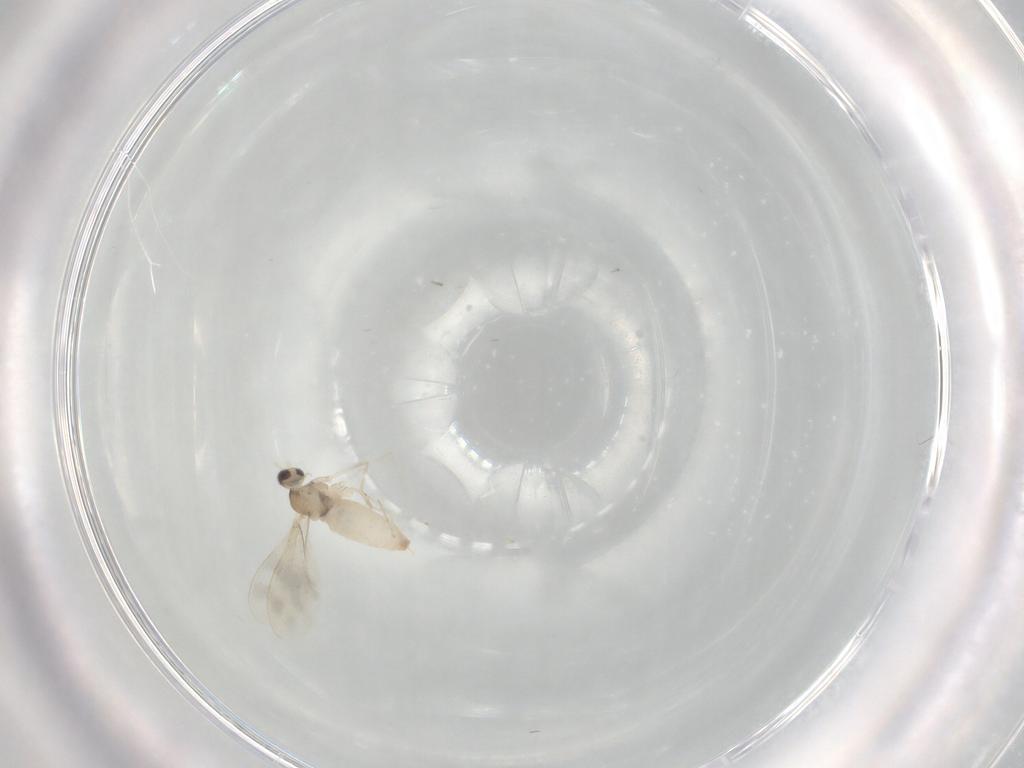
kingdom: Animalia
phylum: Arthropoda
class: Insecta
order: Diptera
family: Cecidomyiidae
